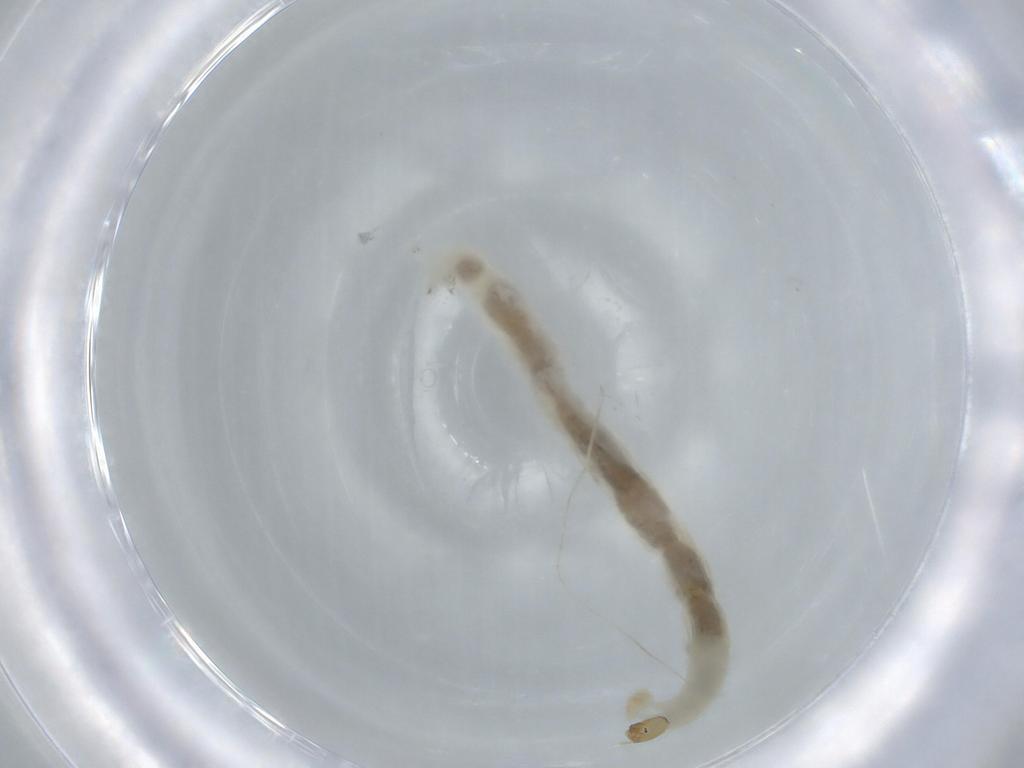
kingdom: Animalia
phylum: Arthropoda
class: Insecta
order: Diptera
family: Chironomidae
